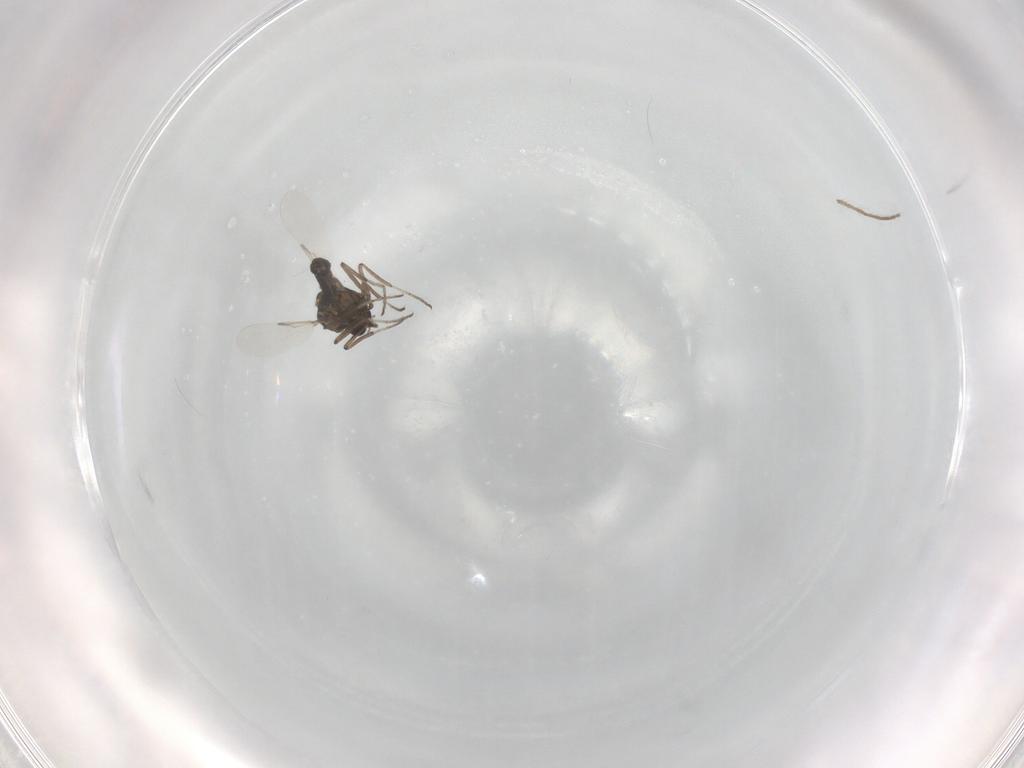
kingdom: Animalia
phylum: Arthropoda
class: Insecta
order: Diptera
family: Ceratopogonidae
